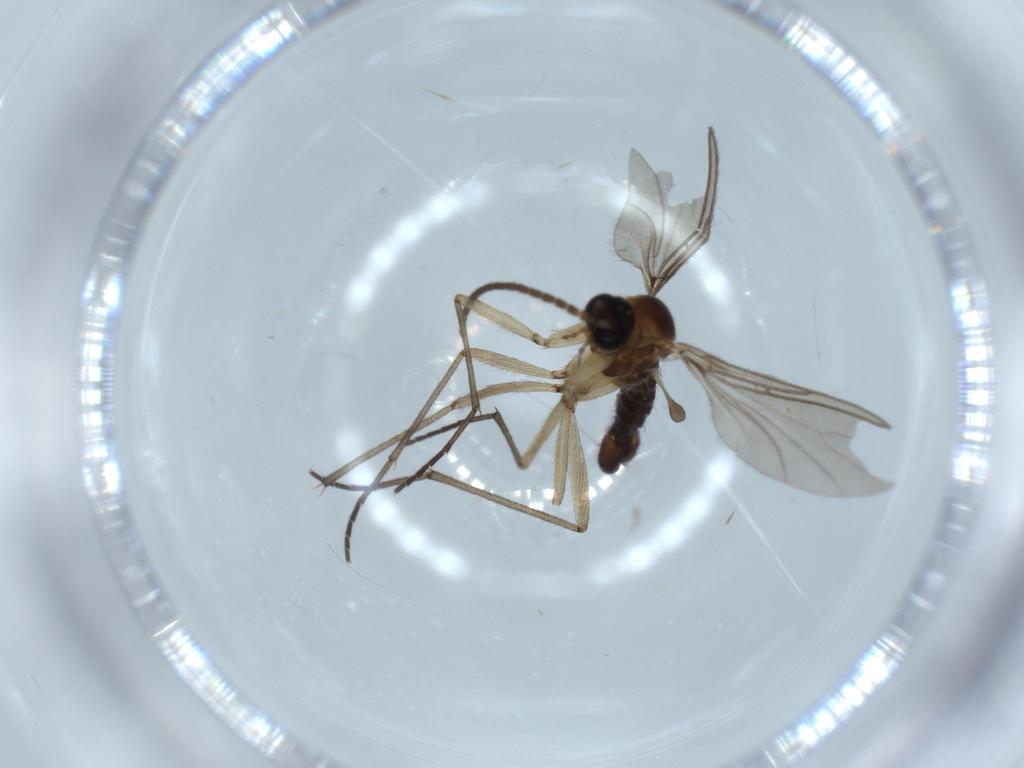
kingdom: Animalia
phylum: Arthropoda
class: Insecta
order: Diptera
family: Sciaridae
